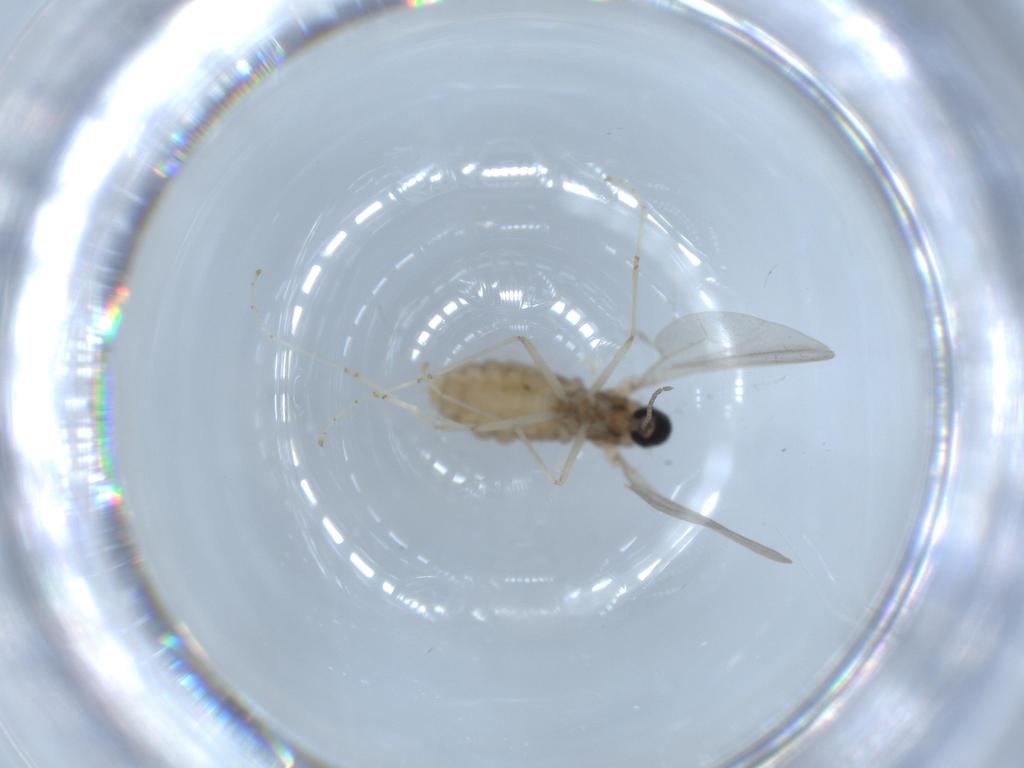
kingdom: Animalia
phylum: Arthropoda
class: Insecta
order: Diptera
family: Cecidomyiidae
